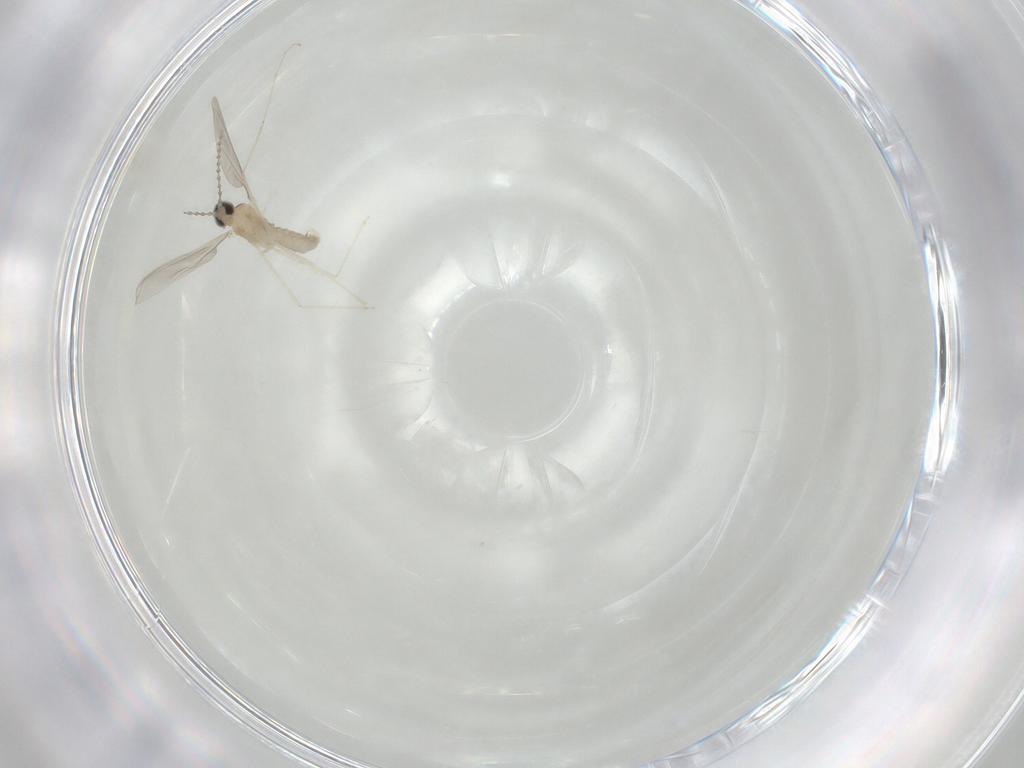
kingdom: Animalia
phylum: Arthropoda
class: Insecta
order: Diptera
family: Cecidomyiidae
